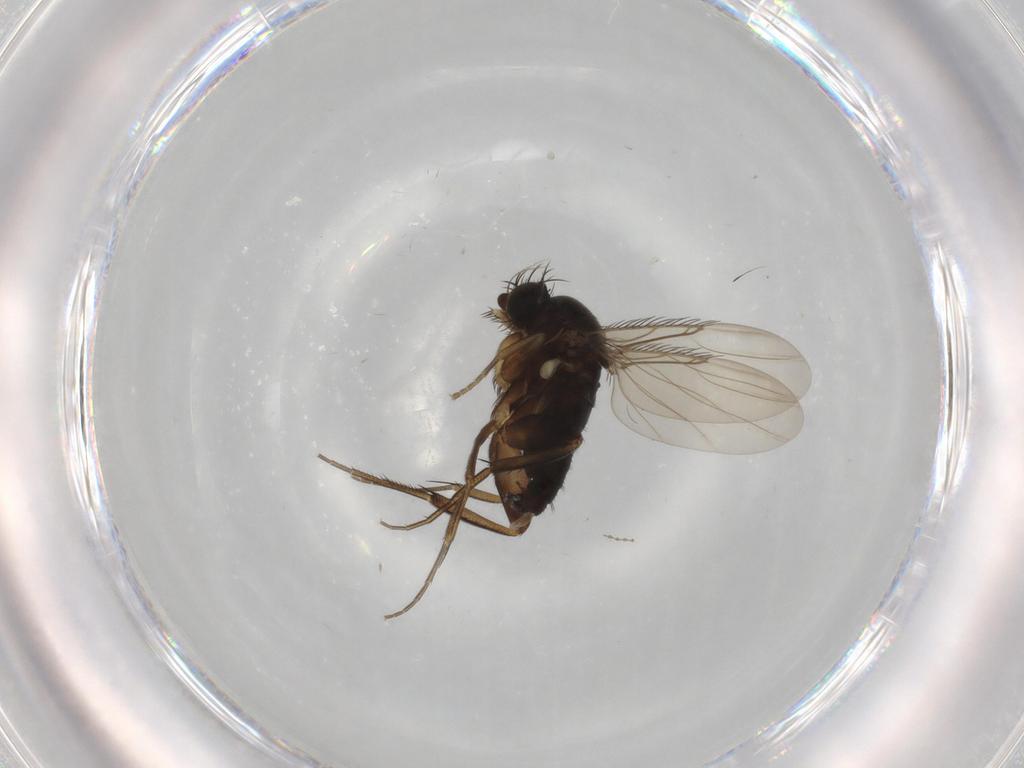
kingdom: Animalia
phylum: Arthropoda
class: Insecta
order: Diptera
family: Phoridae
